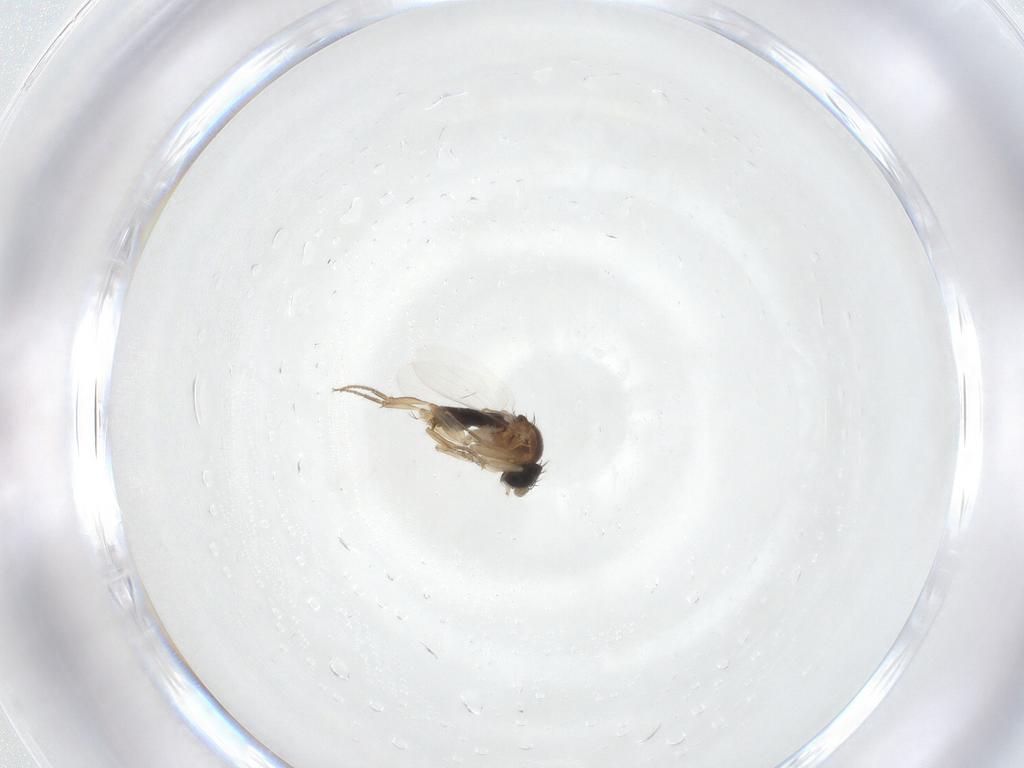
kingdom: Animalia
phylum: Arthropoda
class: Insecta
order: Diptera
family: Phoridae
